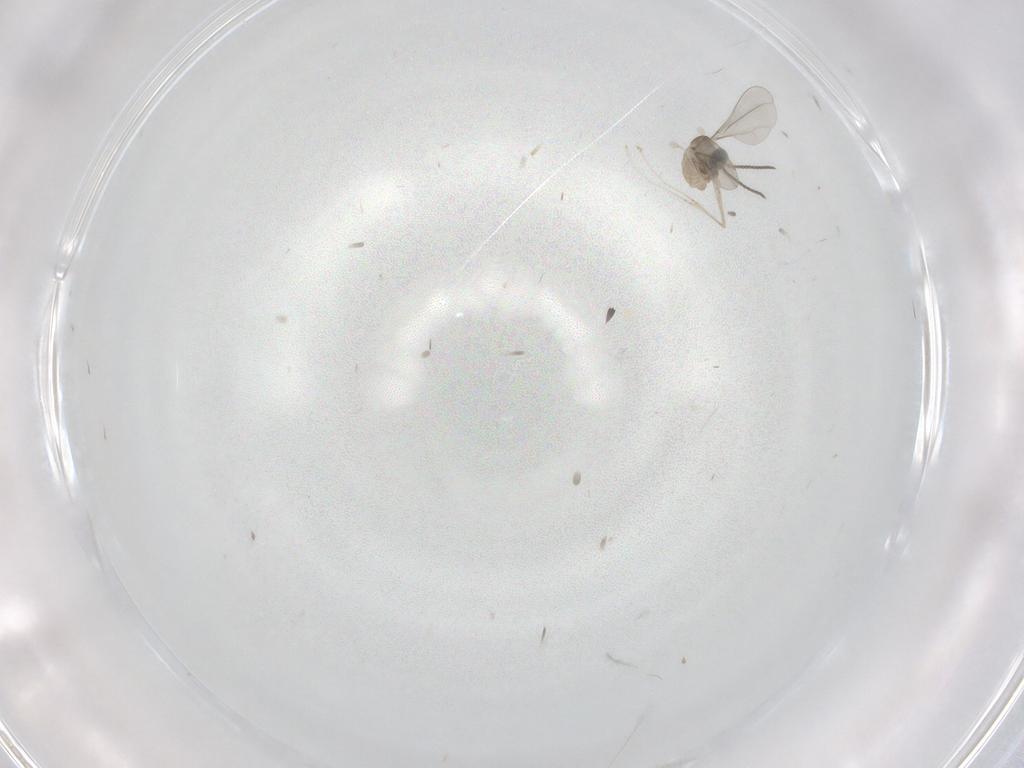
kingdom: Animalia
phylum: Arthropoda
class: Insecta
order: Diptera
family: Cecidomyiidae
